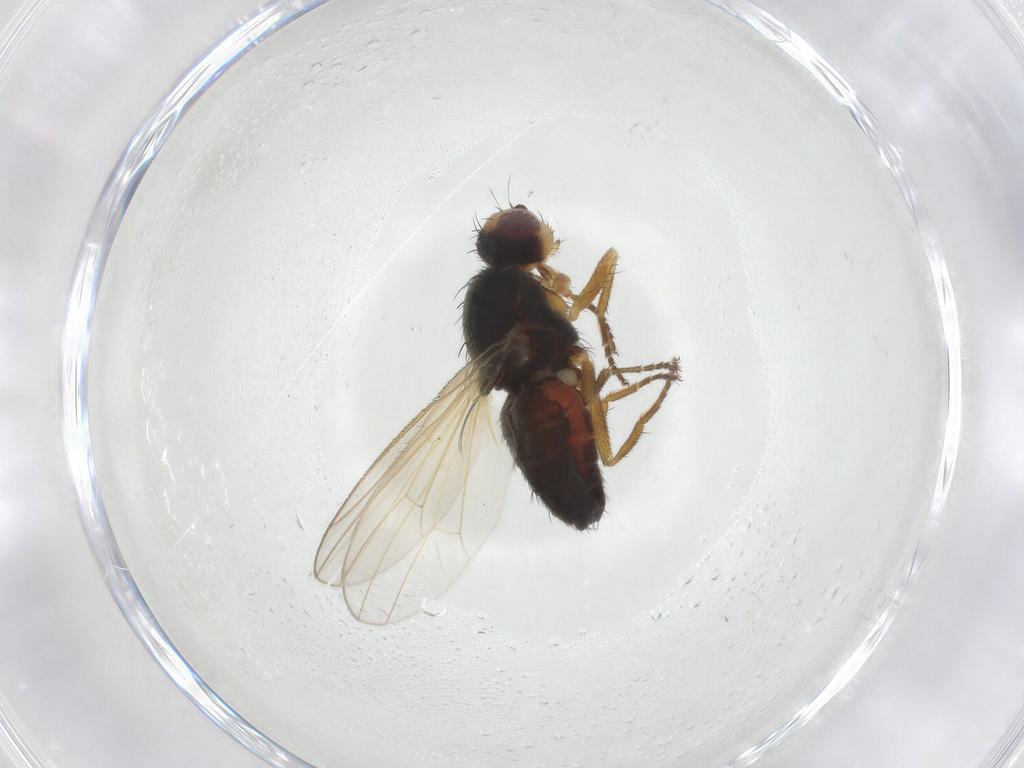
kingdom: Animalia
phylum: Arthropoda
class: Insecta
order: Diptera
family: Heleomyzidae
